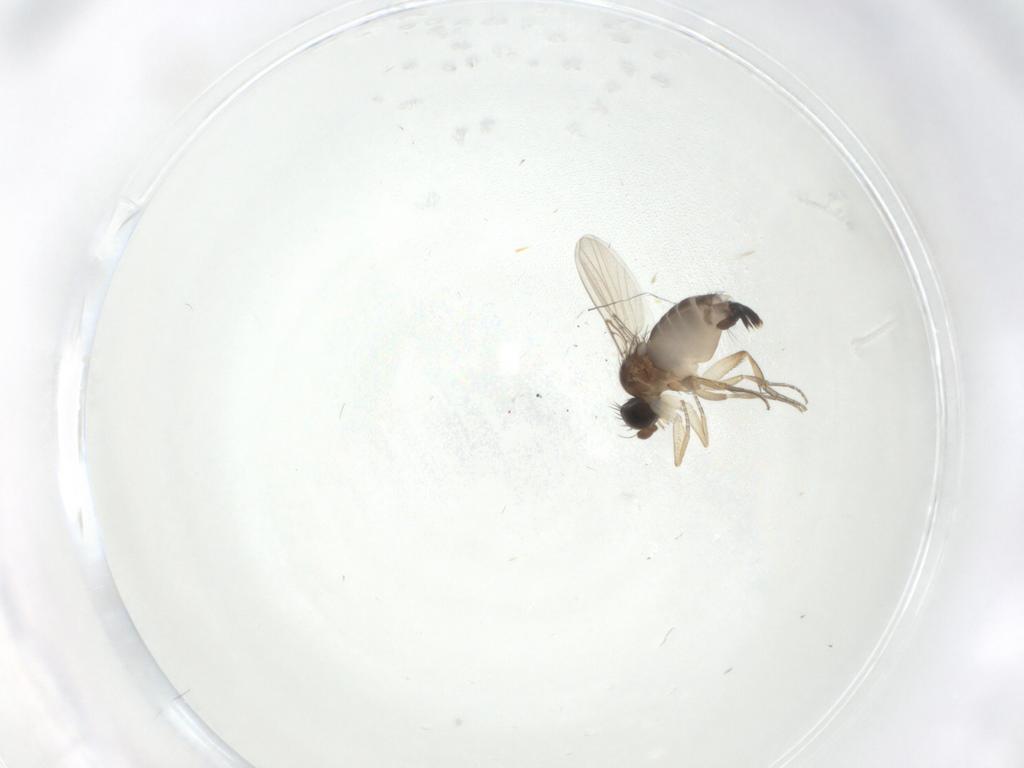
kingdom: Animalia
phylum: Arthropoda
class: Insecta
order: Diptera
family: Phoridae
